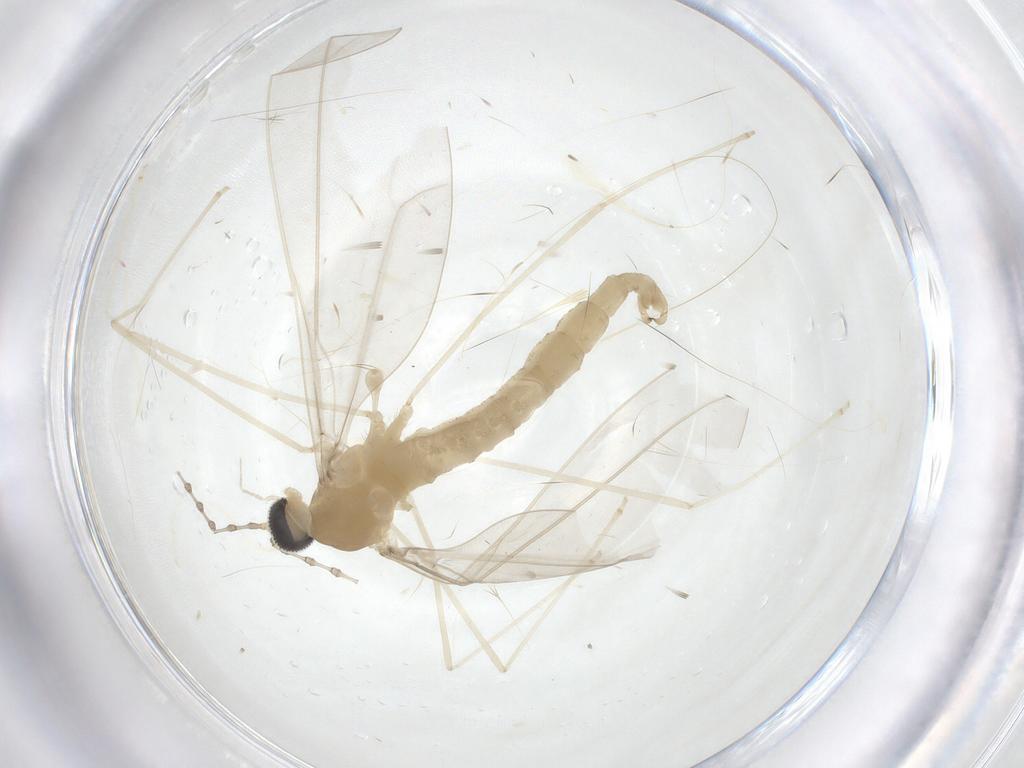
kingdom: Animalia
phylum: Arthropoda
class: Insecta
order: Diptera
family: Cecidomyiidae
